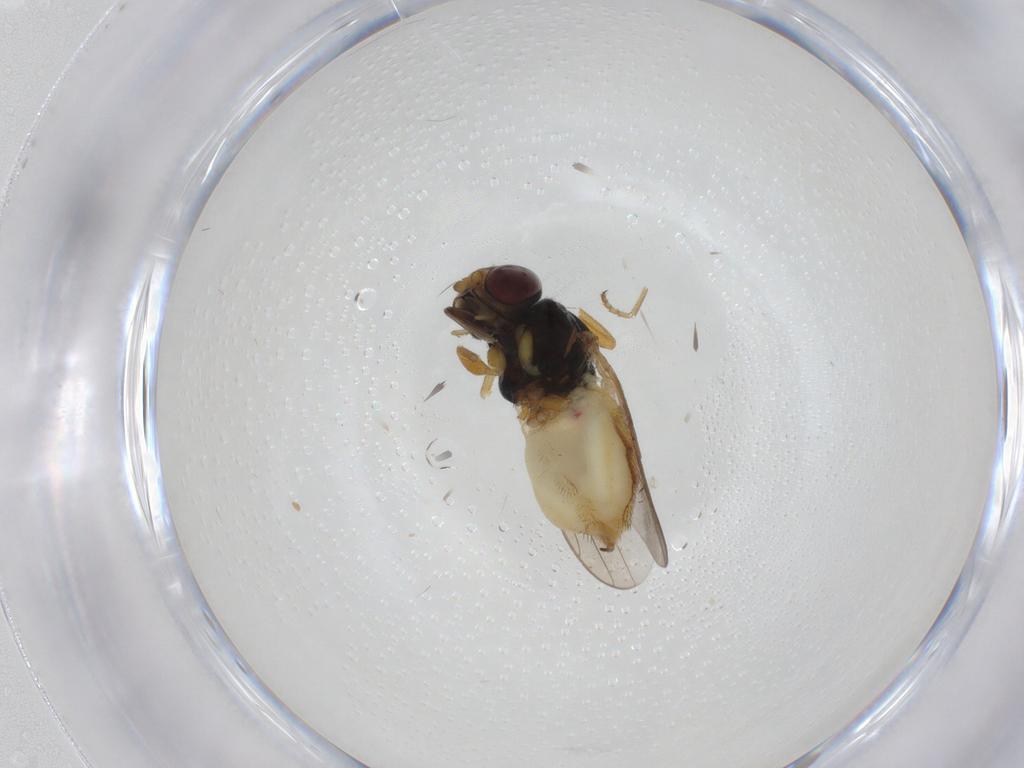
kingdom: Animalia
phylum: Arthropoda
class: Insecta
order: Diptera
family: Chloropidae
